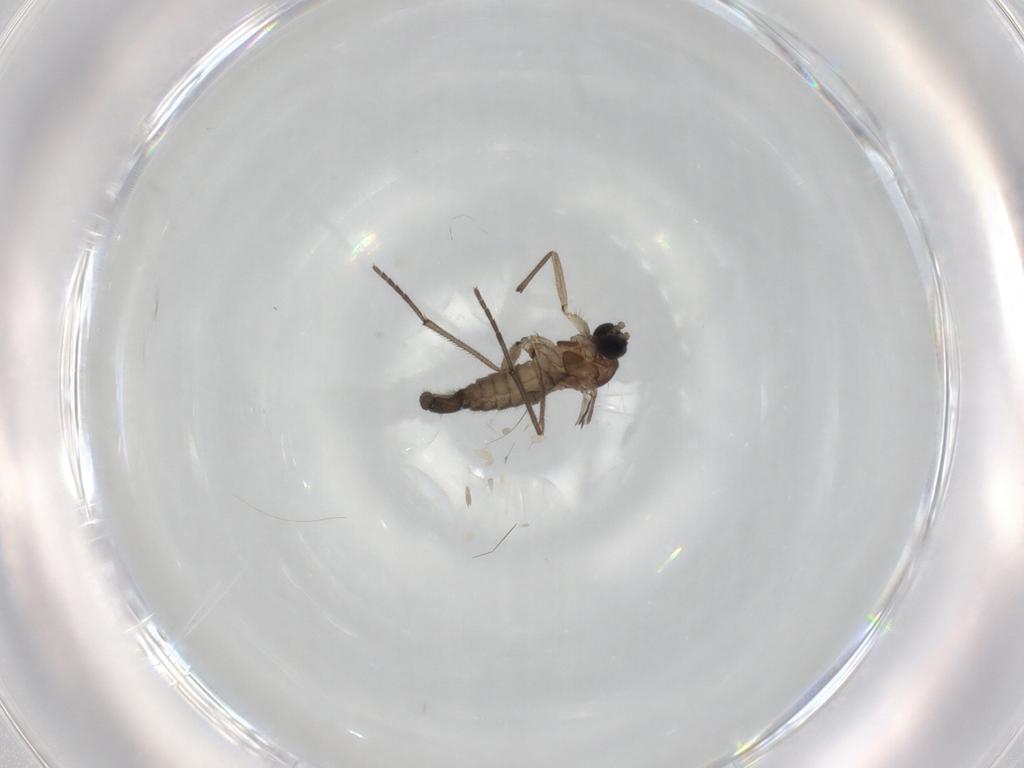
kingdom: Animalia
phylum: Arthropoda
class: Insecta
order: Diptera
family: Sciaridae
